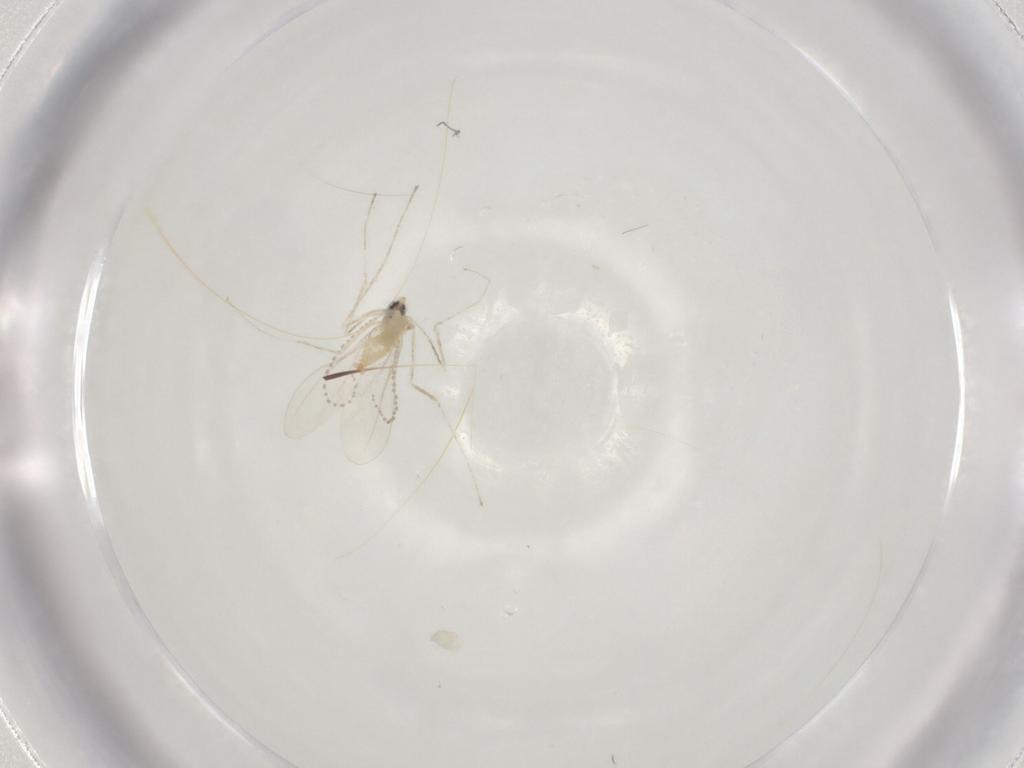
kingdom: Animalia
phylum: Arthropoda
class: Insecta
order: Diptera
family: Cecidomyiidae
